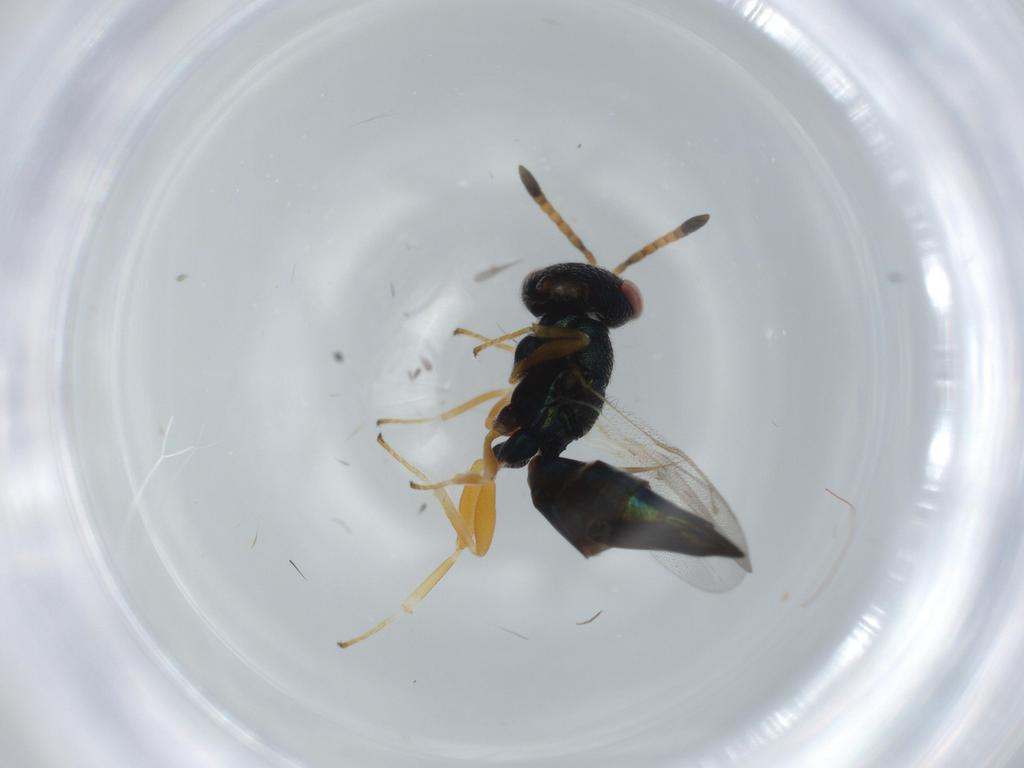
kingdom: Animalia
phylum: Arthropoda
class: Insecta
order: Hymenoptera
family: Pteromalidae
